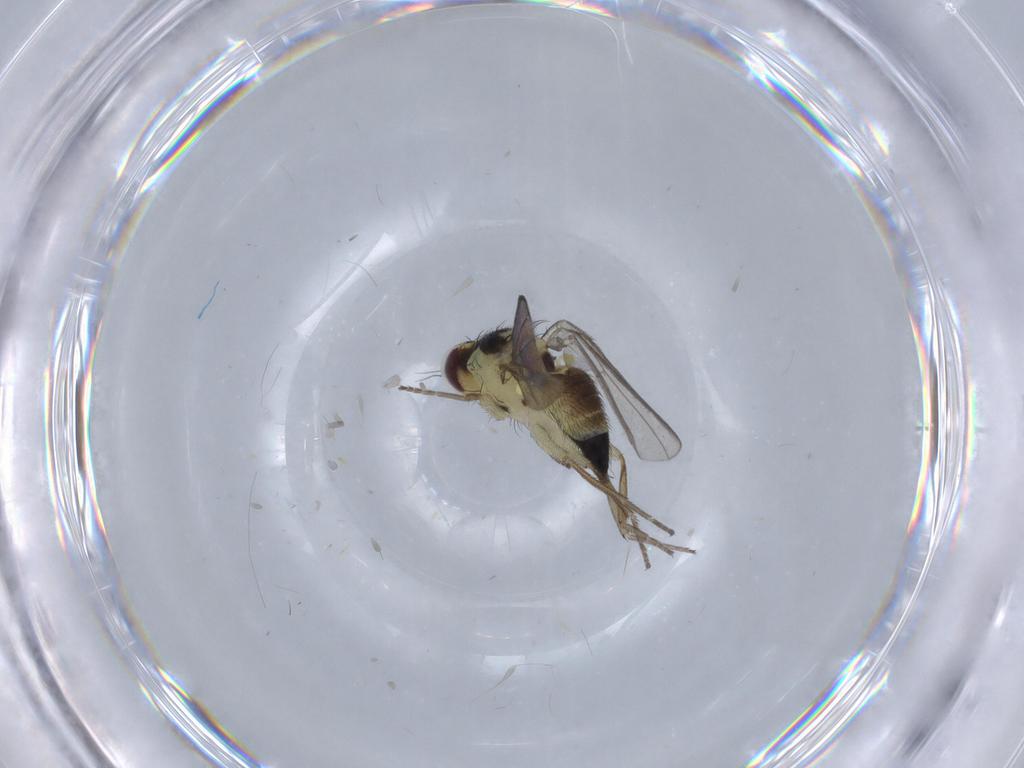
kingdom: Animalia
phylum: Arthropoda
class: Insecta
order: Diptera
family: Agromyzidae
